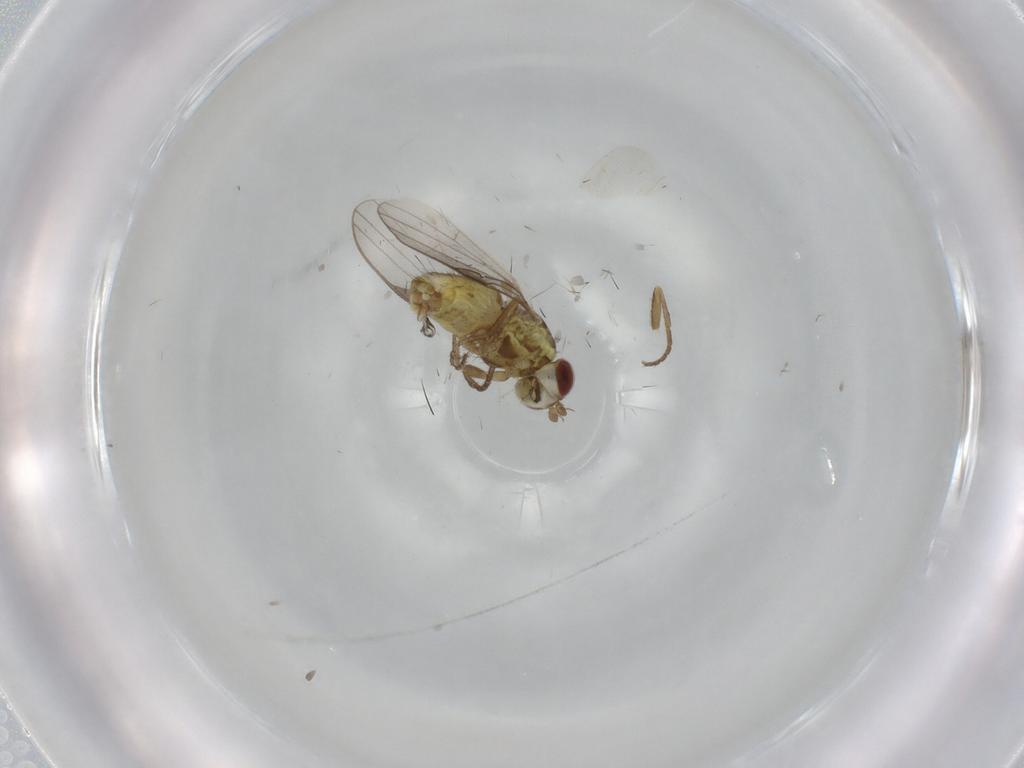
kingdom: Animalia
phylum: Arthropoda
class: Insecta
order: Diptera
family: Chamaemyiidae
